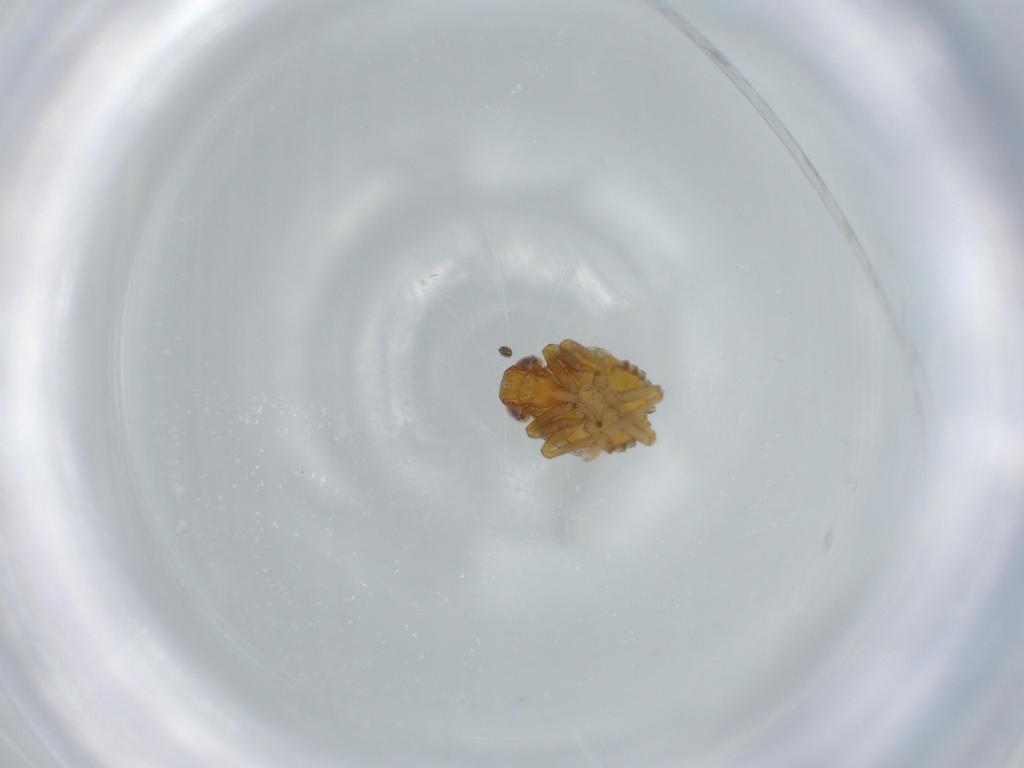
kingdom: Animalia
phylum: Arthropoda
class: Insecta
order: Hemiptera
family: Issidae
